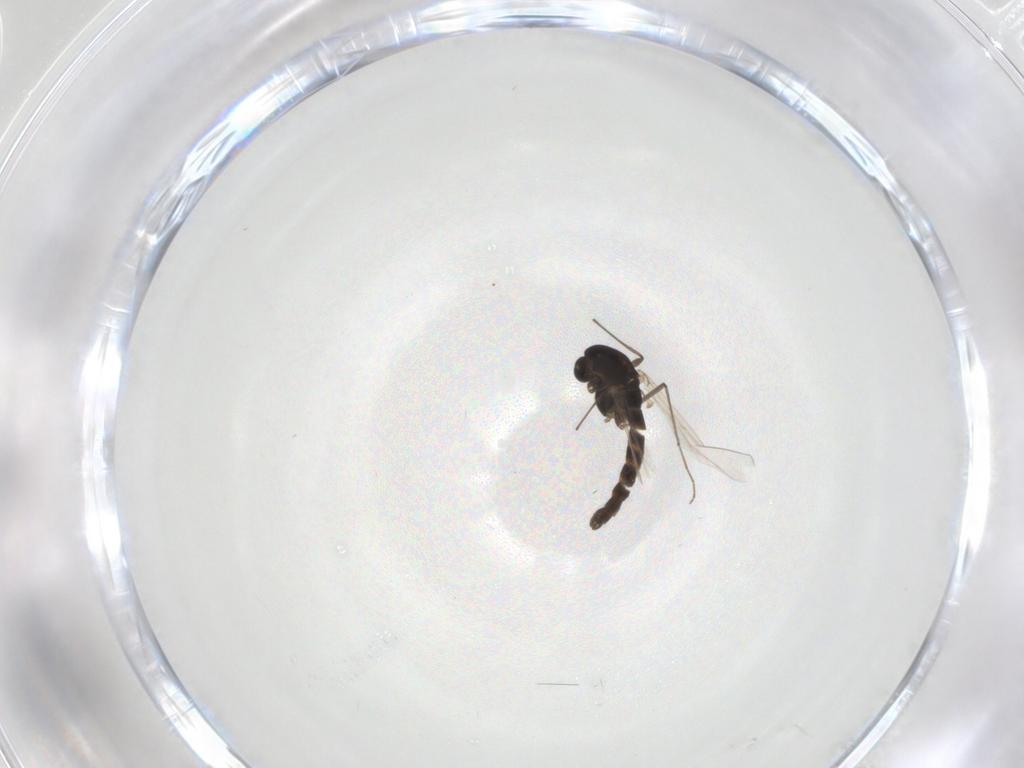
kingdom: Animalia
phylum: Arthropoda
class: Insecta
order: Diptera
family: Chironomidae
